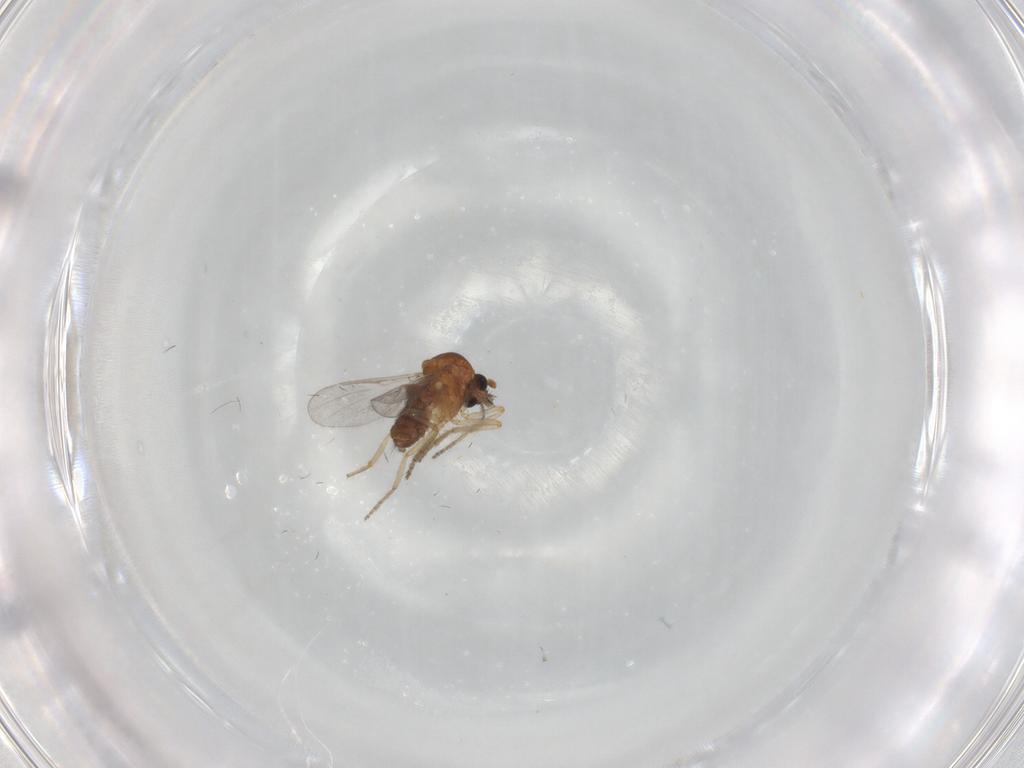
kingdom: Animalia
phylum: Arthropoda
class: Insecta
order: Diptera
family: Ceratopogonidae
